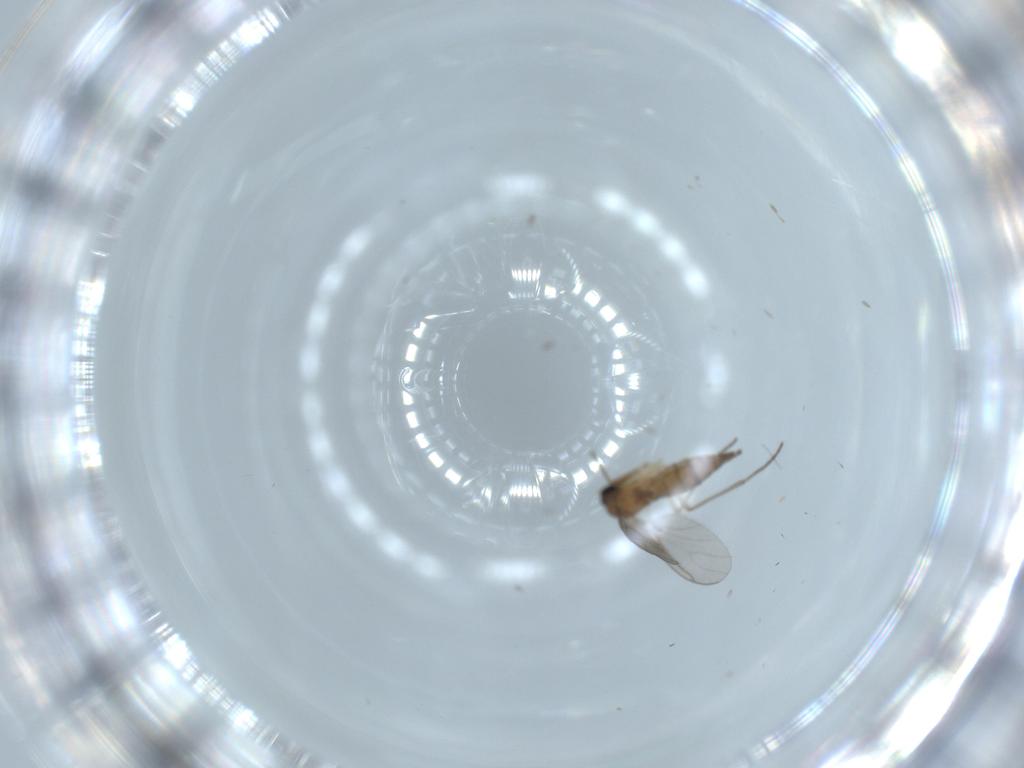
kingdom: Animalia
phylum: Arthropoda
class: Insecta
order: Diptera
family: Sciaridae
